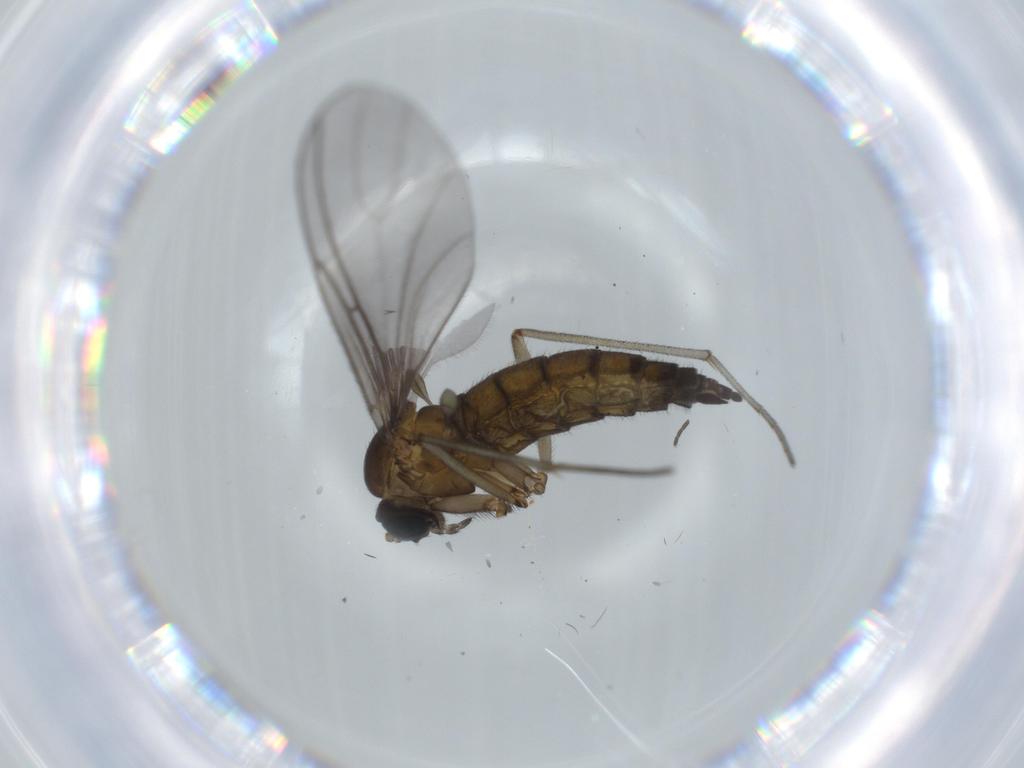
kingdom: Animalia
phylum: Arthropoda
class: Insecta
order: Diptera
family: Sciaridae
